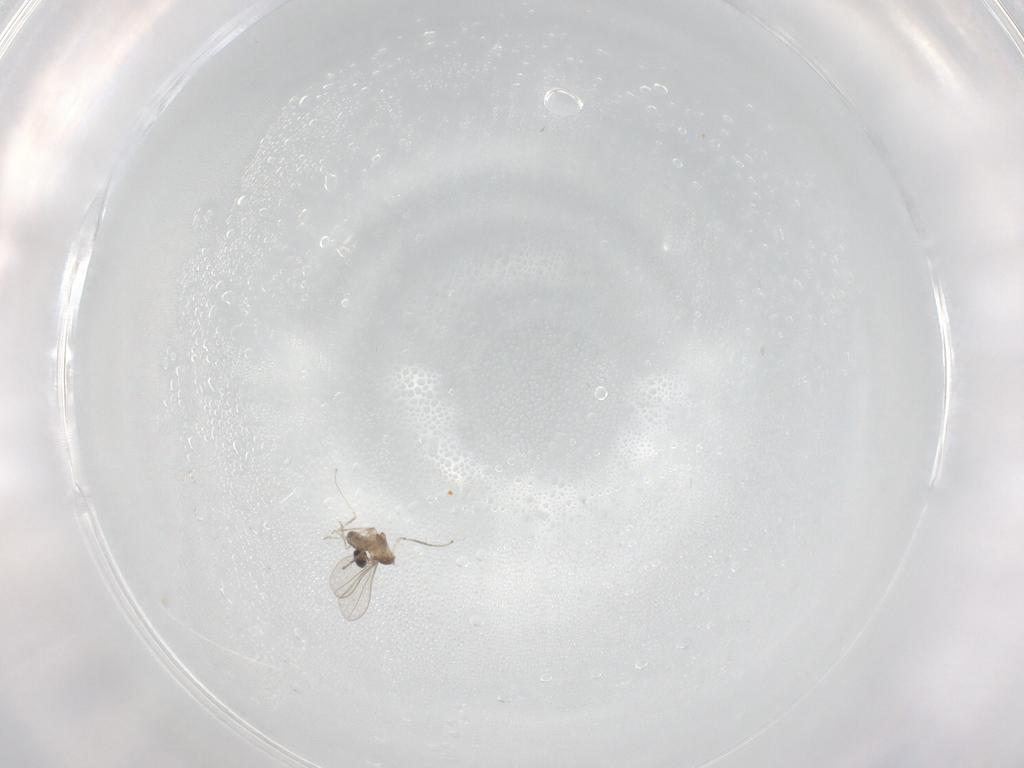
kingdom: Animalia
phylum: Arthropoda
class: Insecta
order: Diptera
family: Cecidomyiidae
